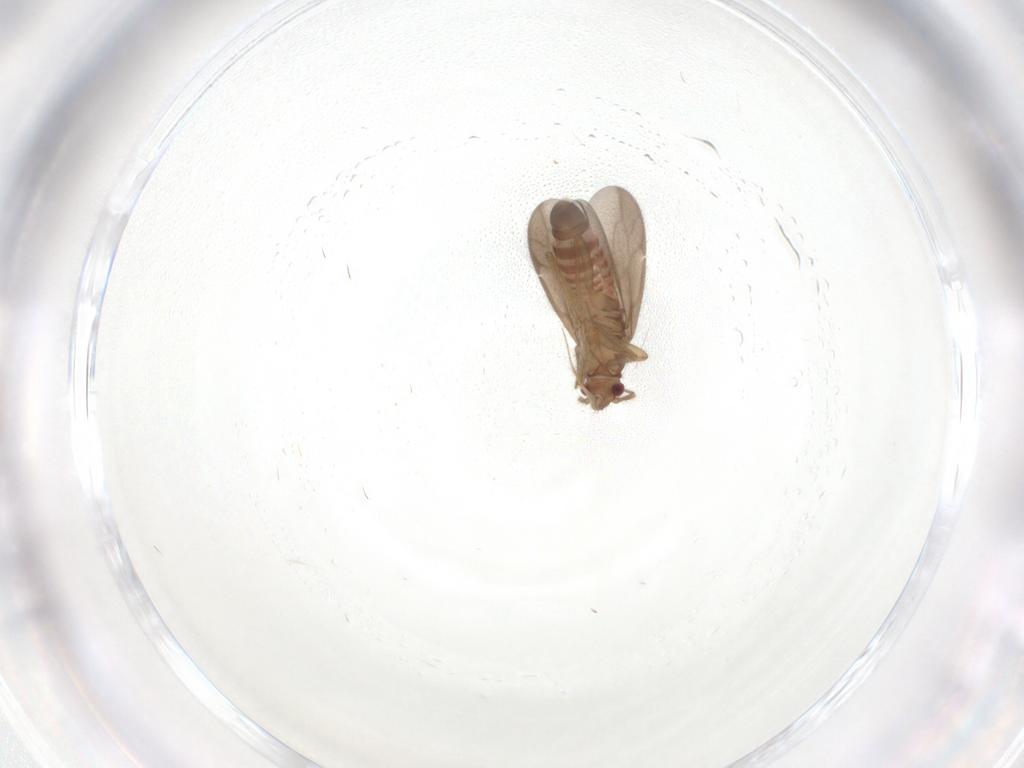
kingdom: Animalia
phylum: Arthropoda
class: Insecta
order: Hemiptera
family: Ceratocombidae
